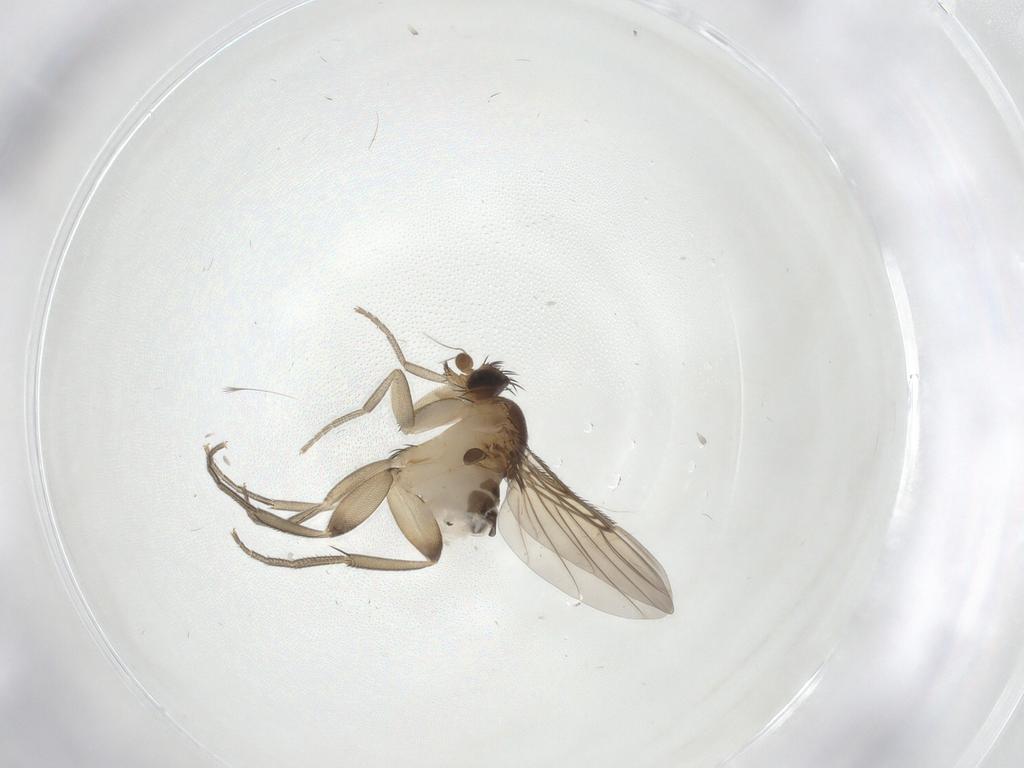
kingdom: Animalia
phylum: Arthropoda
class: Insecta
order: Diptera
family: Phoridae
